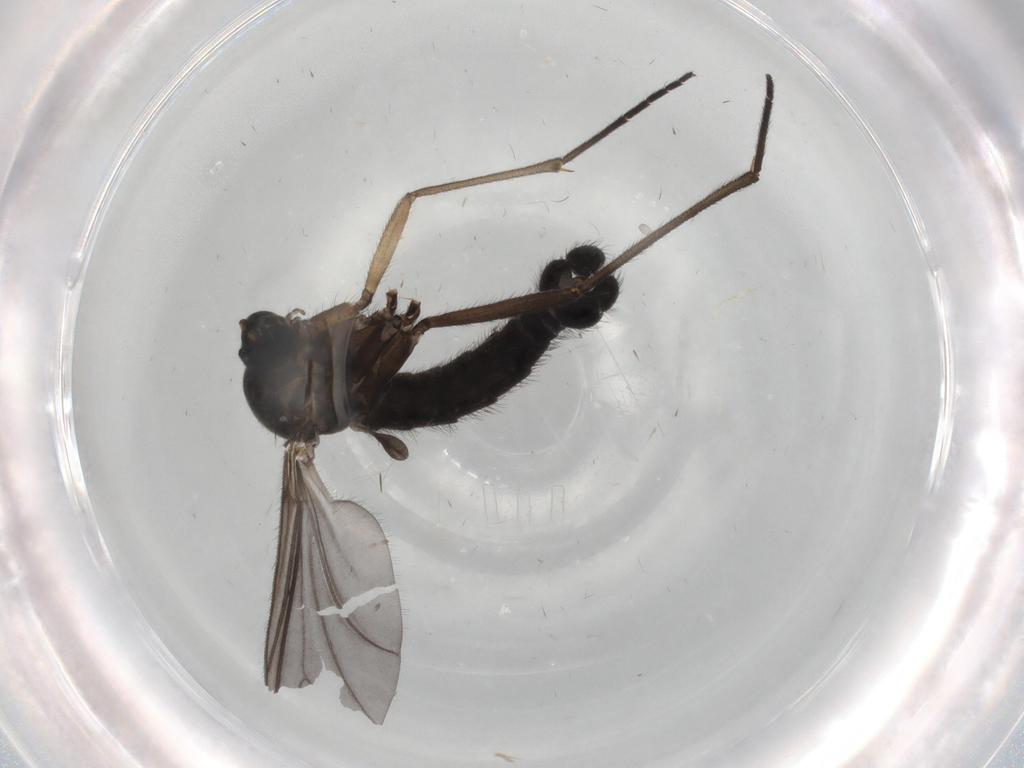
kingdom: Animalia
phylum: Arthropoda
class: Insecta
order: Diptera
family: Sciaridae
